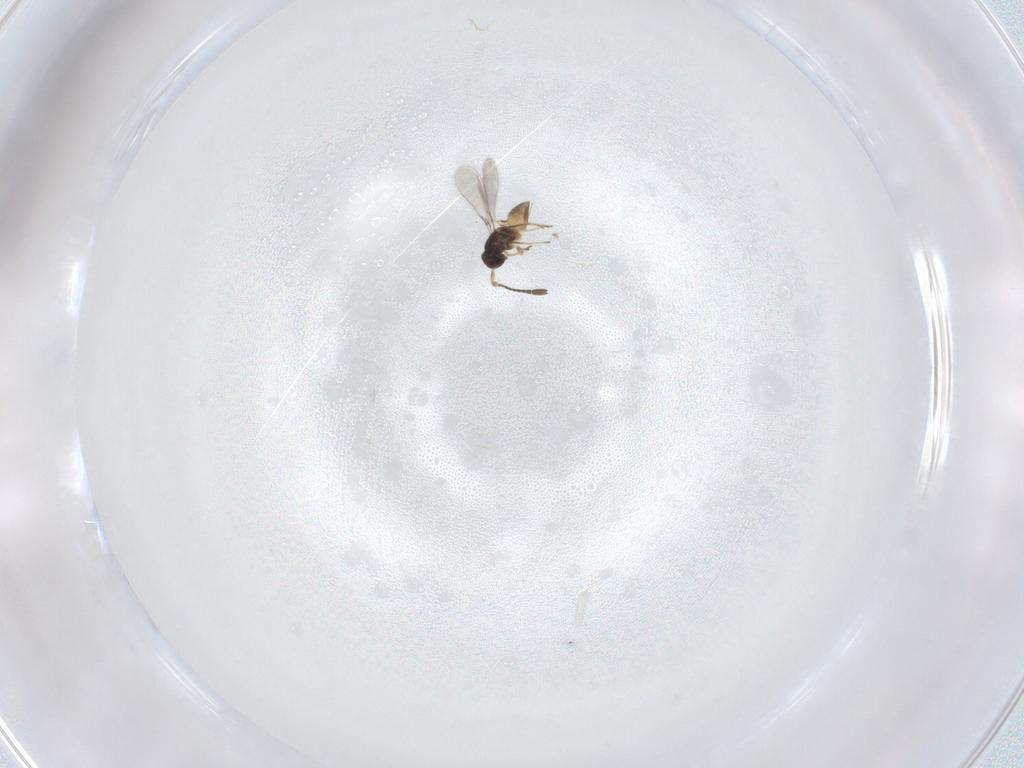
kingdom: Animalia
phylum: Arthropoda
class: Insecta
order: Hymenoptera
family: Mymaridae
